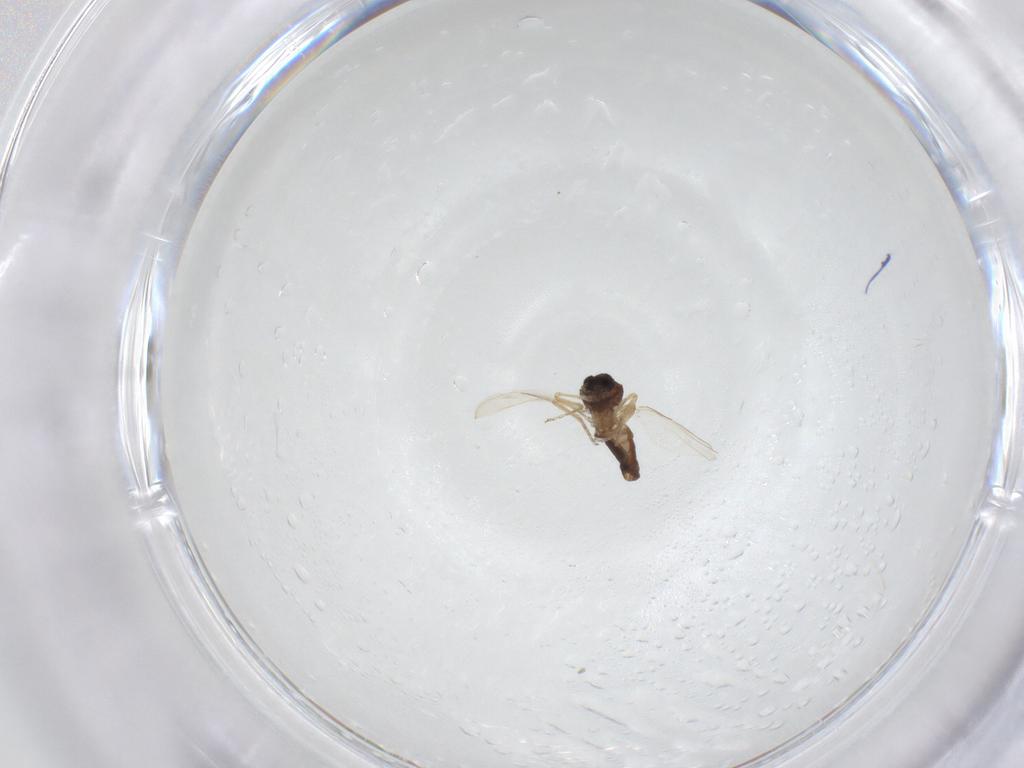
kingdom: Animalia
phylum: Arthropoda
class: Insecta
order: Diptera
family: Ceratopogonidae
